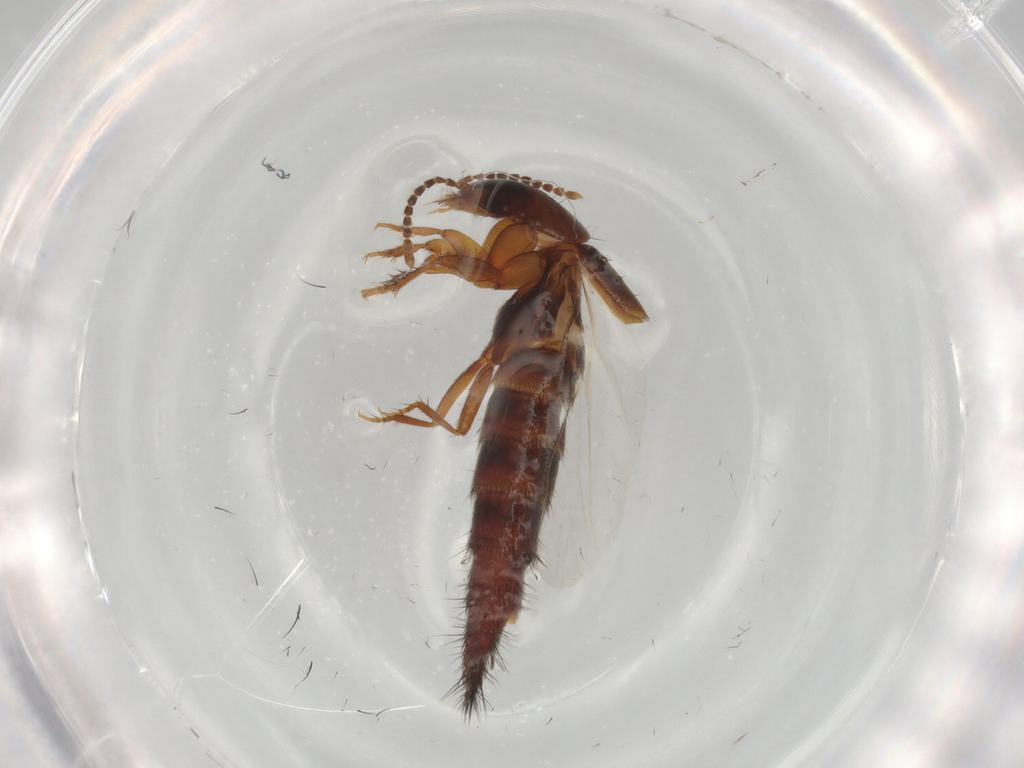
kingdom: Animalia
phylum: Arthropoda
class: Insecta
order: Coleoptera
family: Staphylinidae
